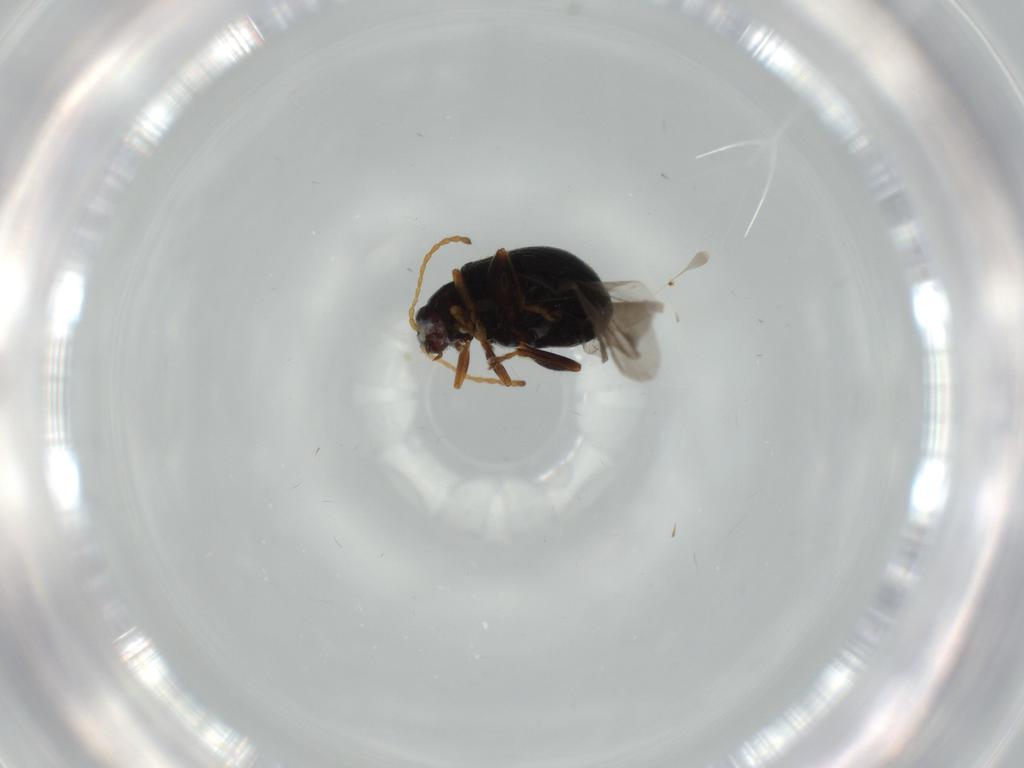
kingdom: Animalia
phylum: Arthropoda
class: Insecta
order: Coleoptera
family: Chrysomelidae
